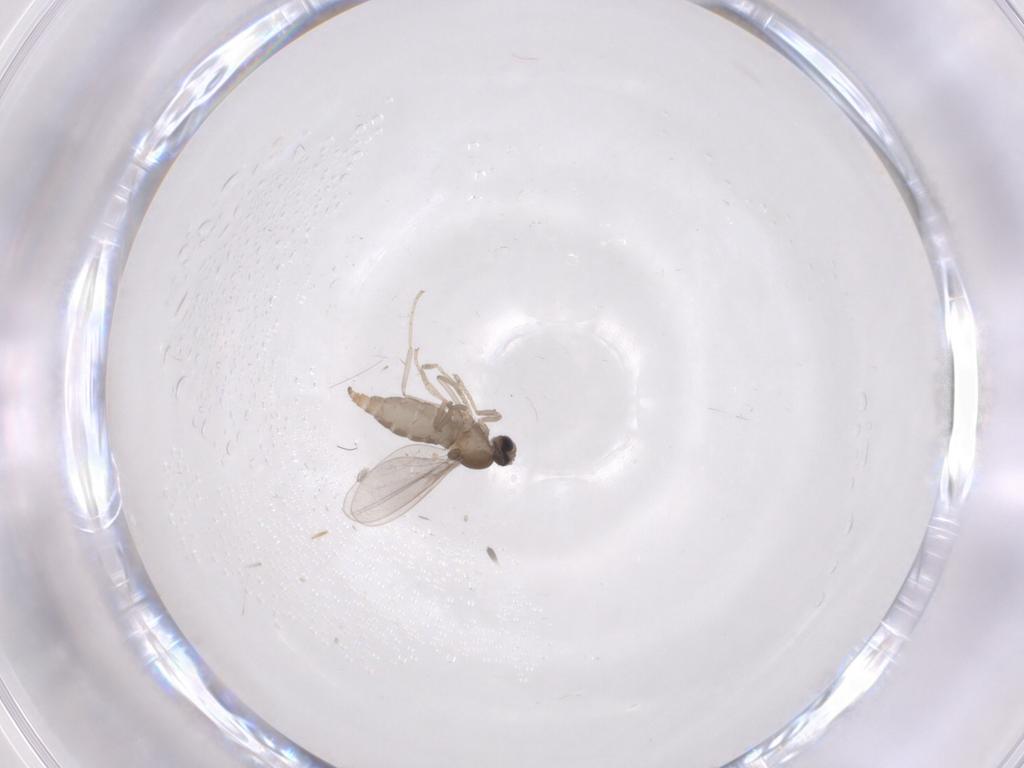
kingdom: Animalia
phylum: Arthropoda
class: Insecta
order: Diptera
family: Cecidomyiidae
